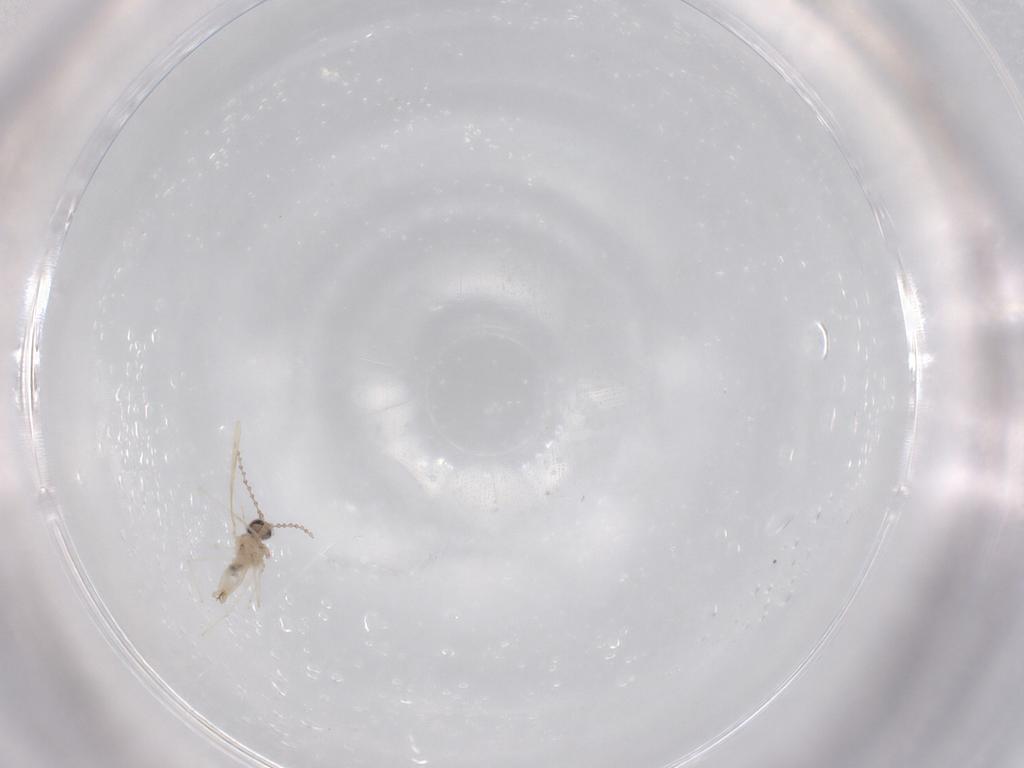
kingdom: Animalia
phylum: Arthropoda
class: Insecta
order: Diptera
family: Cecidomyiidae
